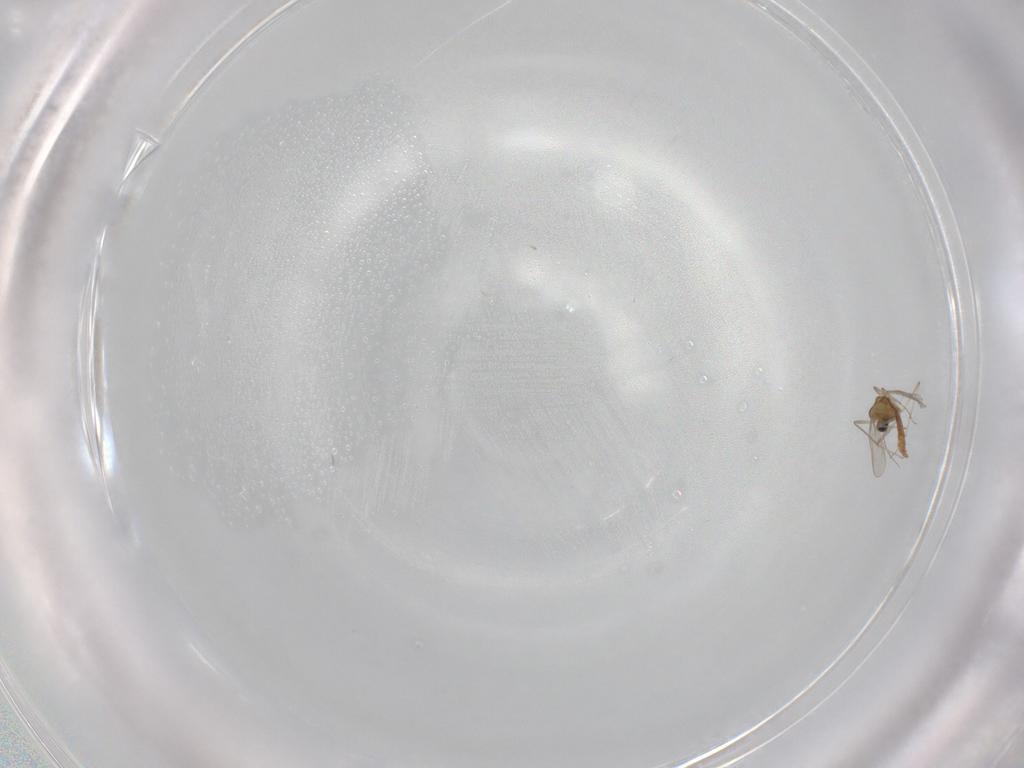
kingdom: Animalia
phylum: Arthropoda
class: Insecta
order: Diptera
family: Chironomidae
